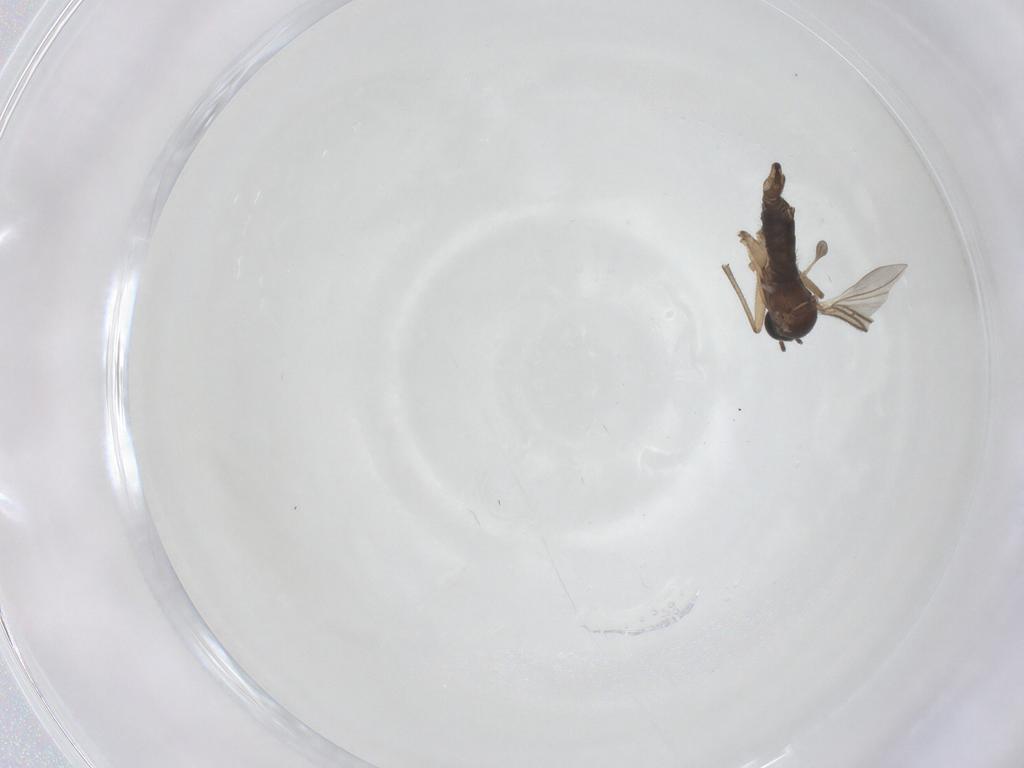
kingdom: Animalia
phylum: Arthropoda
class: Insecta
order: Diptera
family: Sciaridae
